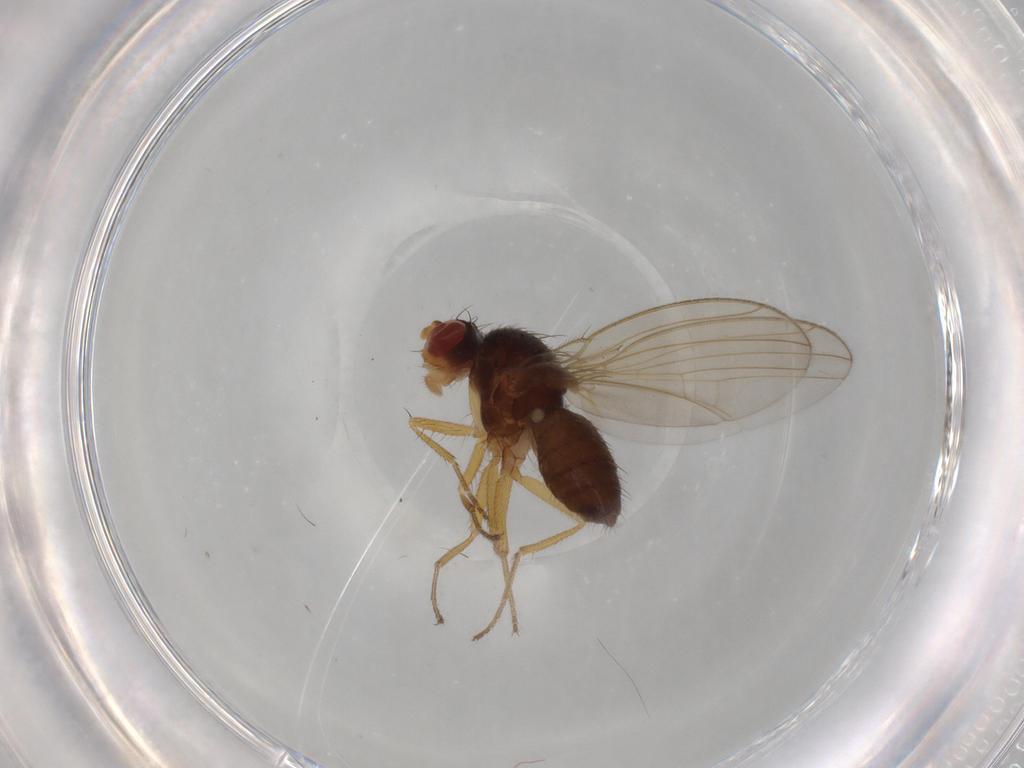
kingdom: Animalia
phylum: Arthropoda
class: Insecta
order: Diptera
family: Drosophilidae
